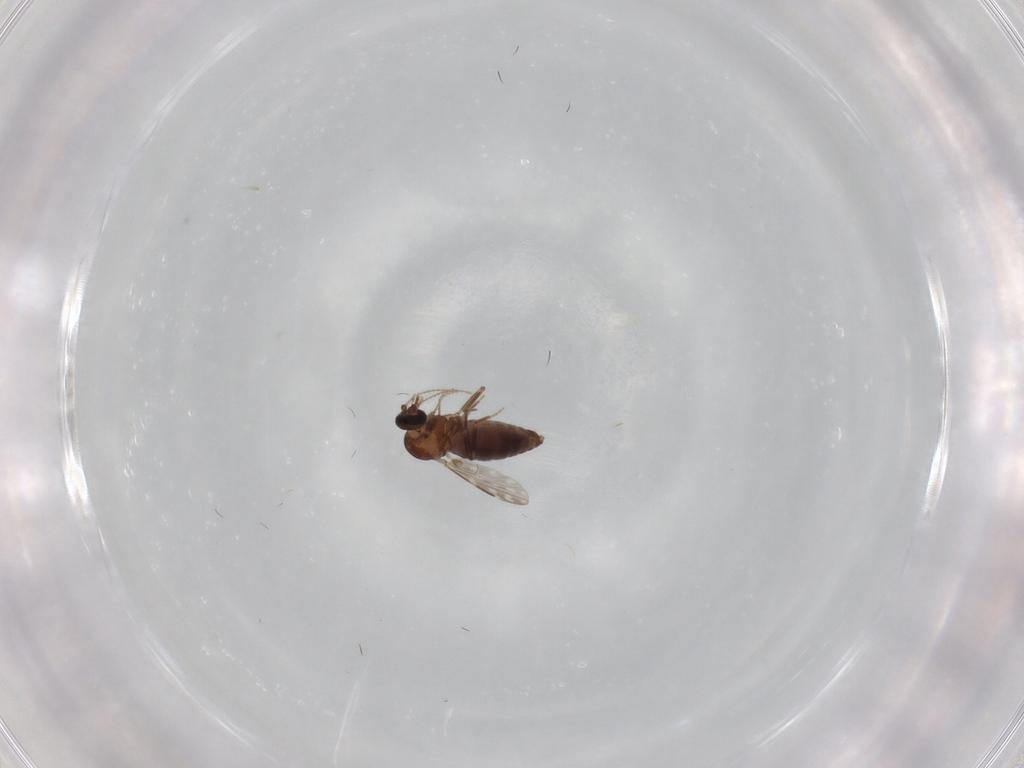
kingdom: Animalia
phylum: Arthropoda
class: Insecta
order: Diptera
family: Ceratopogonidae
